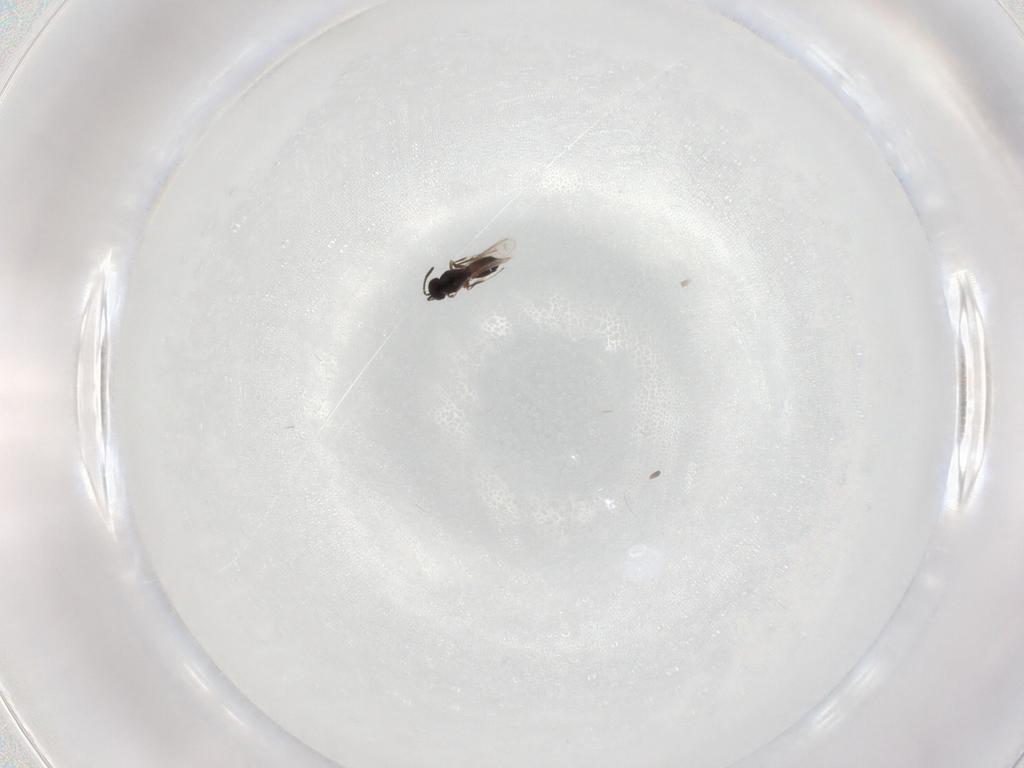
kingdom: Animalia
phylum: Arthropoda
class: Insecta
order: Hymenoptera
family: Scelionidae
